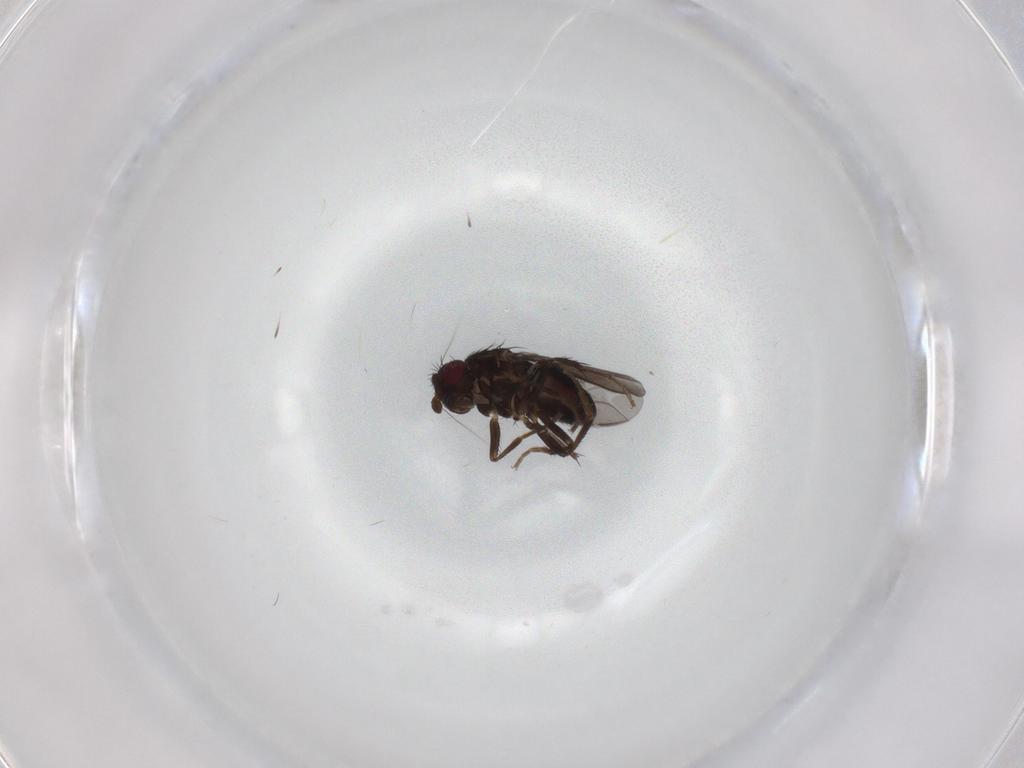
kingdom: Animalia
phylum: Arthropoda
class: Insecta
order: Diptera
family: Sphaeroceridae
